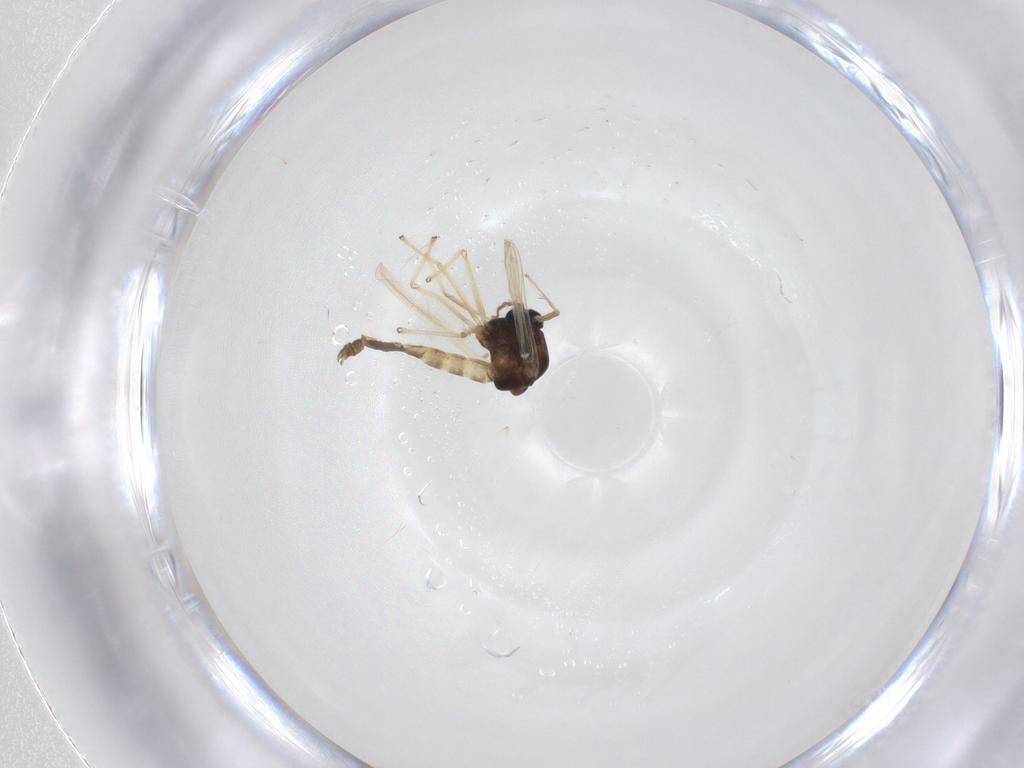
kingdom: Animalia
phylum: Arthropoda
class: Insecta
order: Diptera
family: Chironomidae
